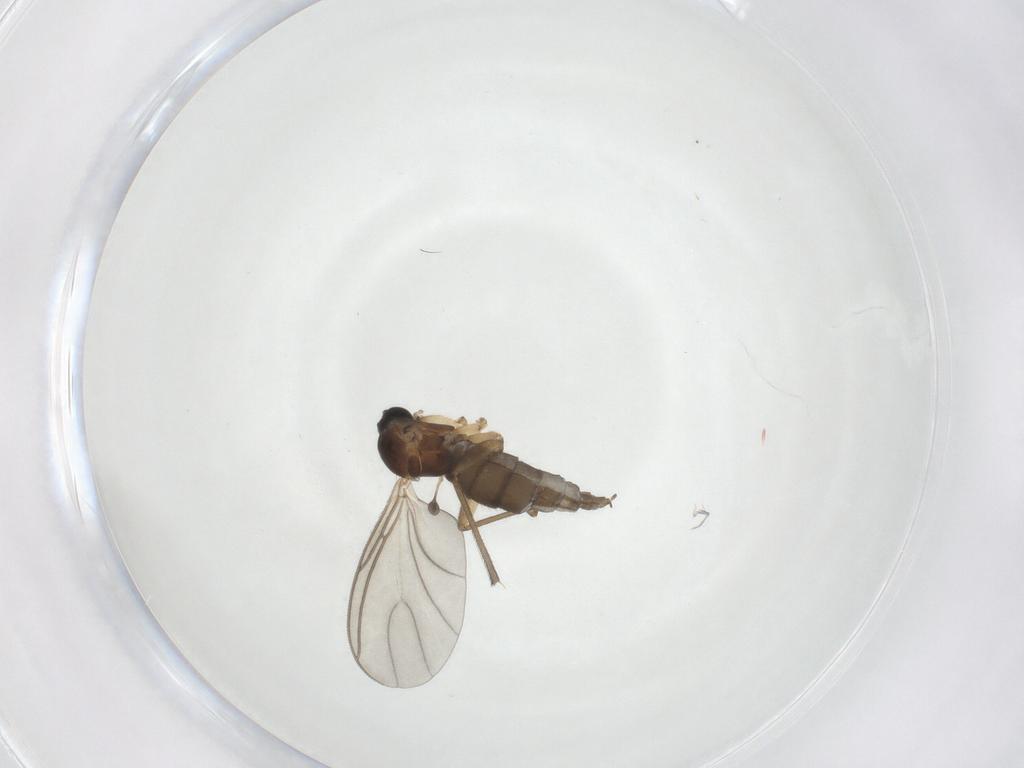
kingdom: Animalia
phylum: Arthropoda
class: Insecta
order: Diptera
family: Sciaridae
